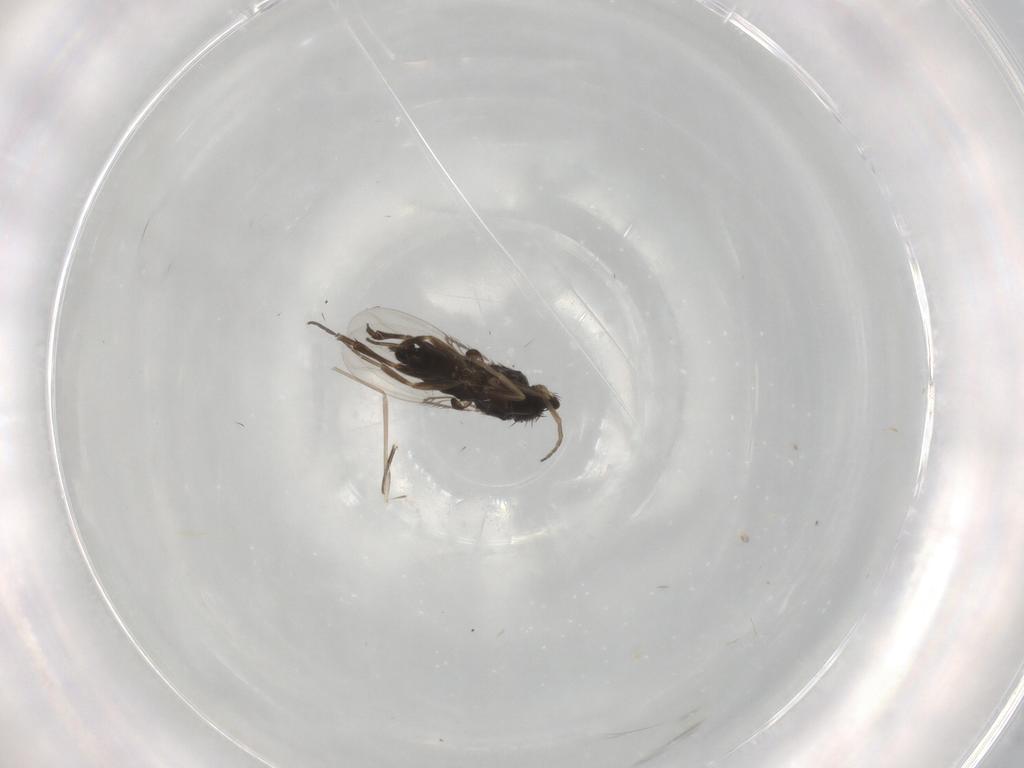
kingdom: Animalia
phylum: Arthropoda
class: Insecta
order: Diptera
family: Phoridae
